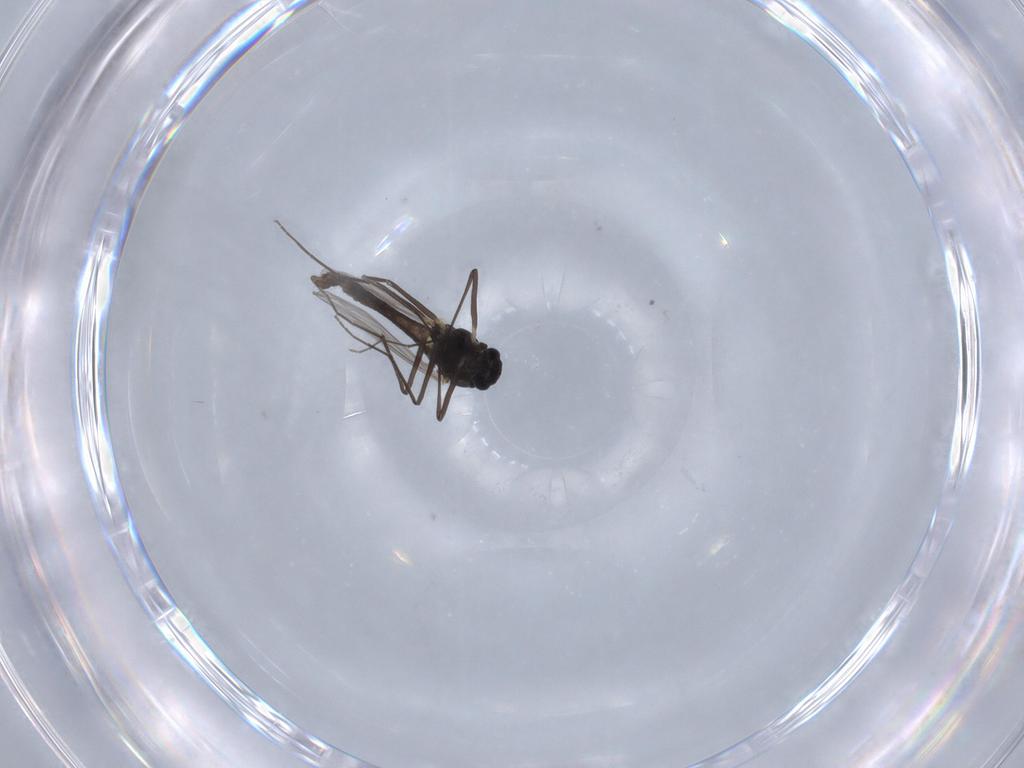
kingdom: Animalia
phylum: Arthropoda
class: Insecta
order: Diptera
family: Chironomidae
